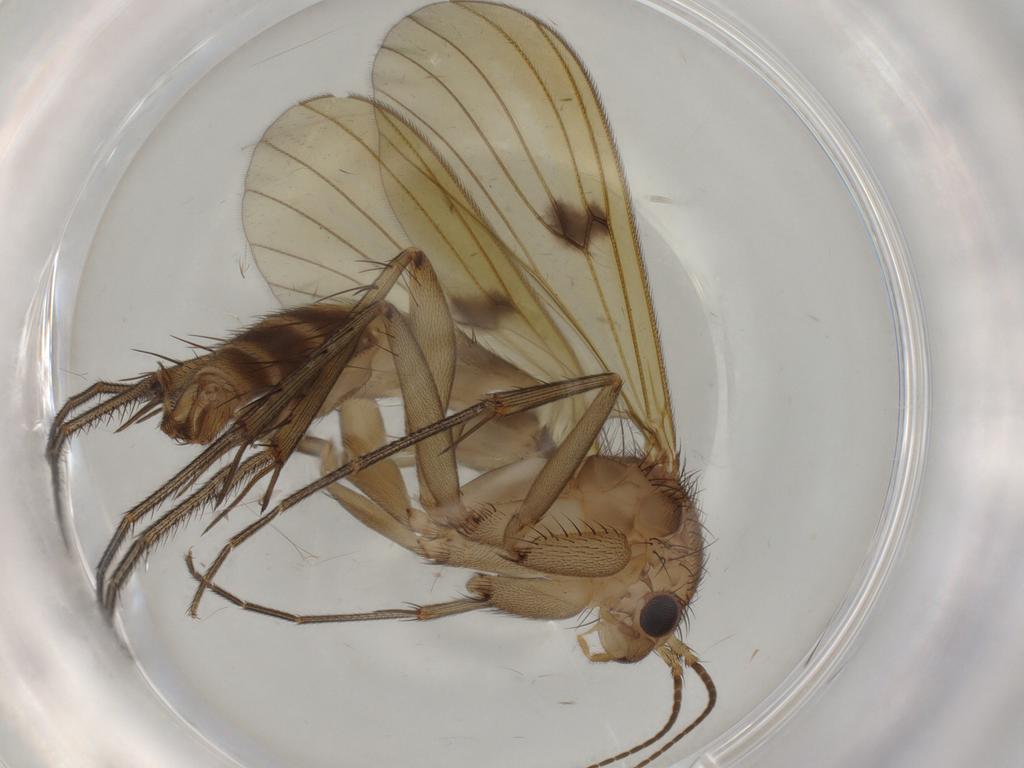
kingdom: Animalia
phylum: Arthropoda
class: Insecta
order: Diptera
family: Mycetophilidae
